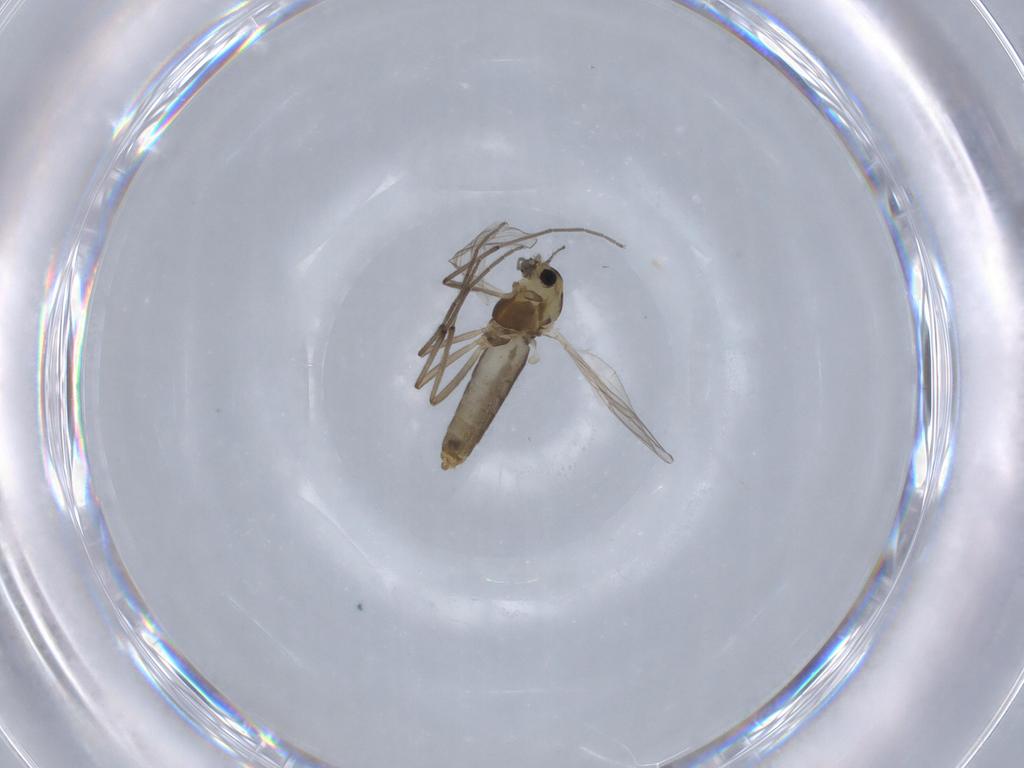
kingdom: Animalia
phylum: Arthropoda
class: Insecta
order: Diptera
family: Chironomidae
